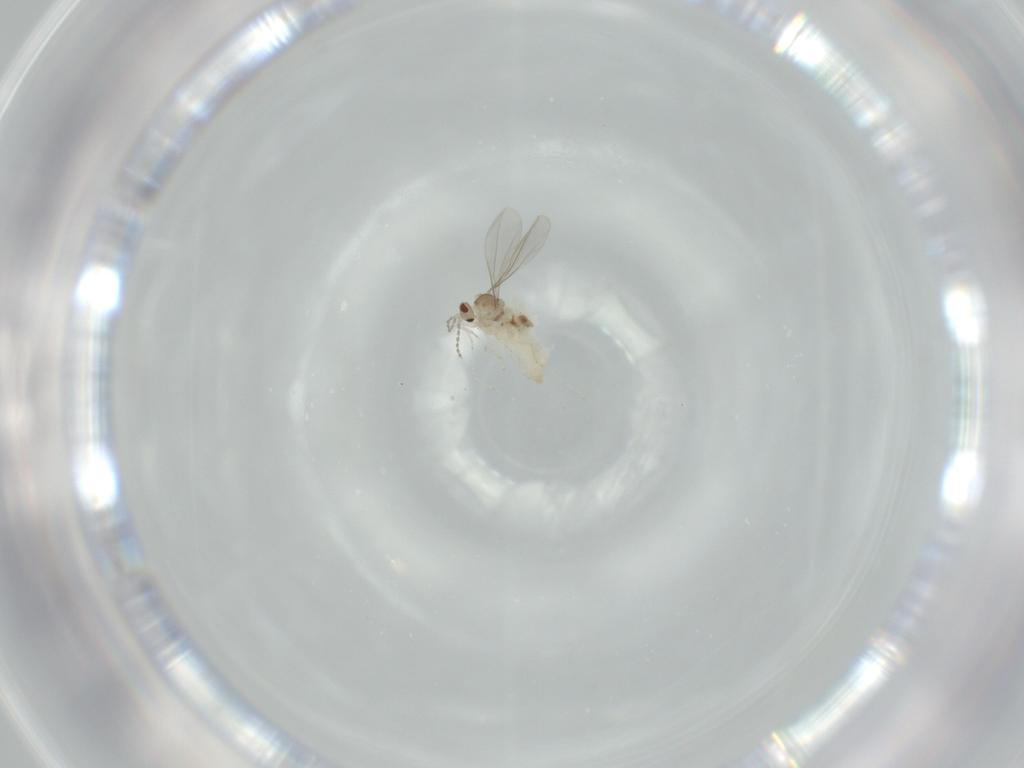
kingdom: Animalia
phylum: Arthropoda
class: Insecta
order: Diptera
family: Cecidomyiidae
